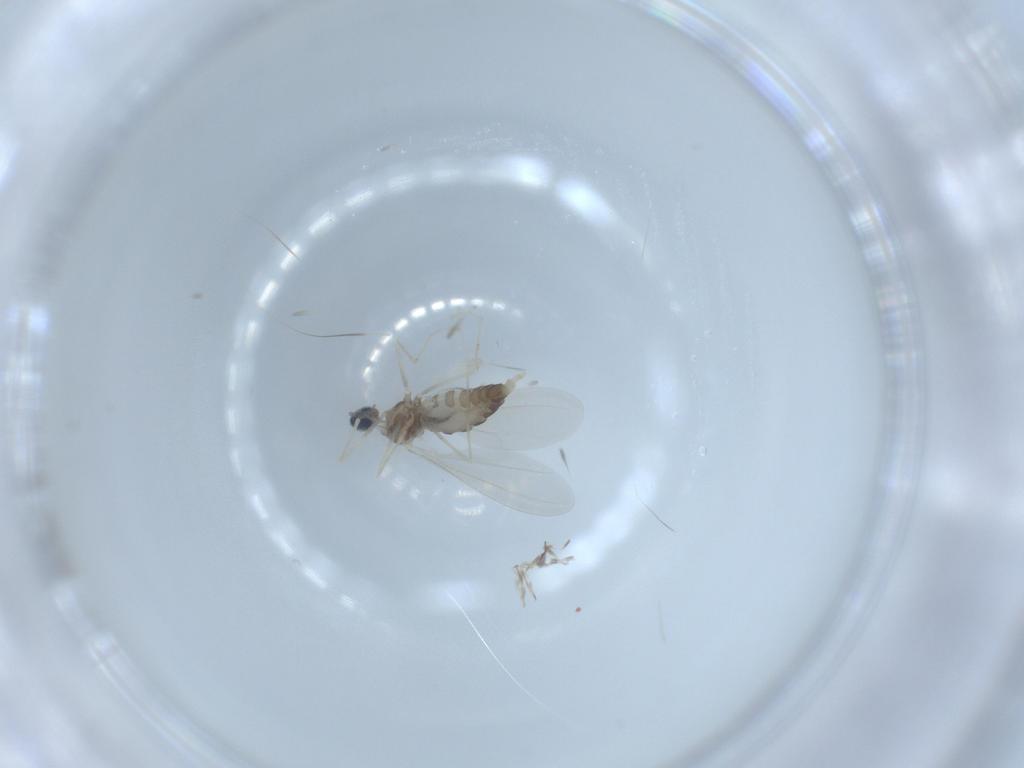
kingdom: Animalia
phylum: Arthropoda
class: Insecta
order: Diptera
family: Cecidomyiidae
